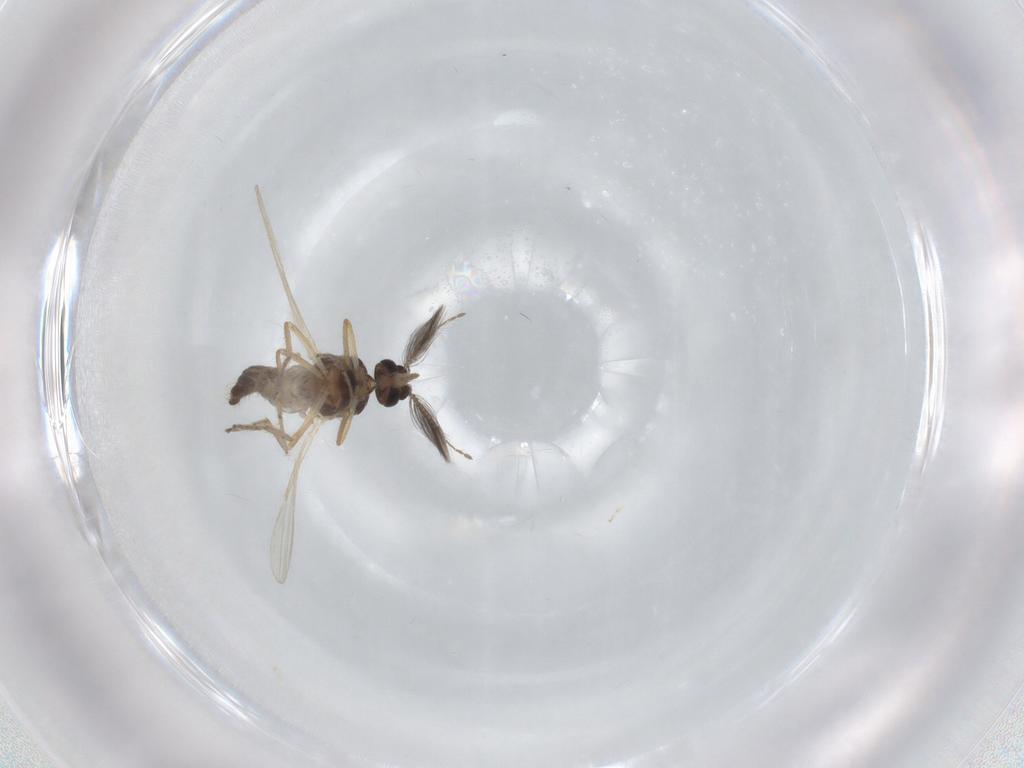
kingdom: Animalia
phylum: Arthropoda
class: Insecta
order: Diptera
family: Ceratopogonidae
